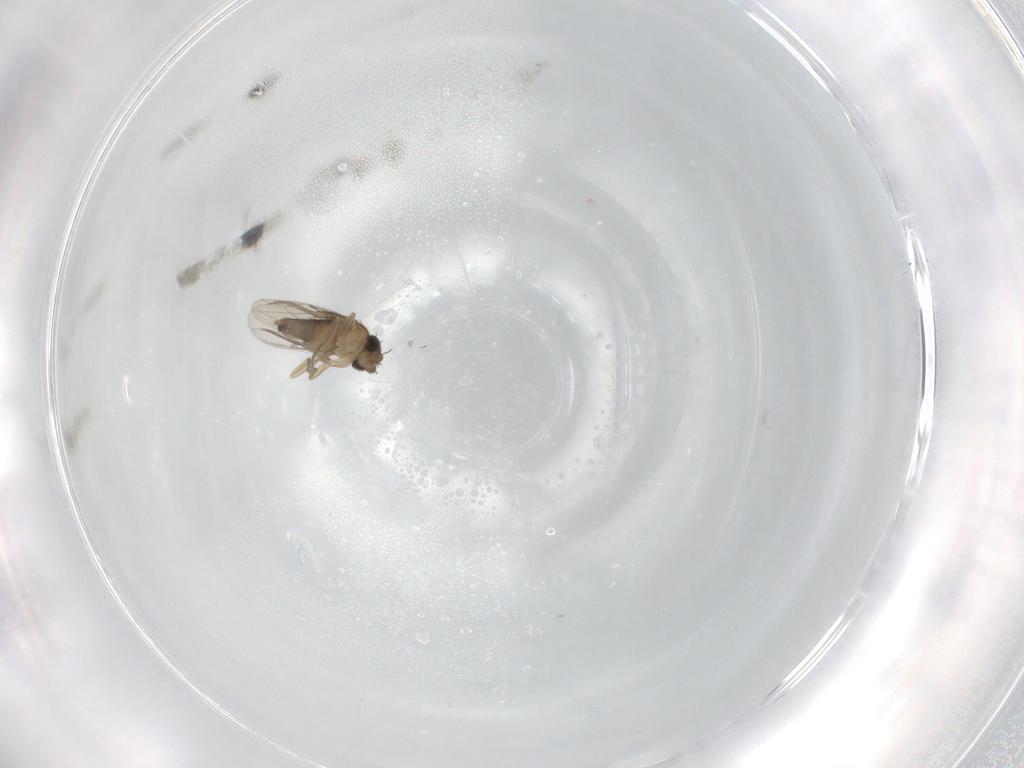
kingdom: Animalia
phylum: Arthropoda
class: Insecta
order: Diptera
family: Phoridae
